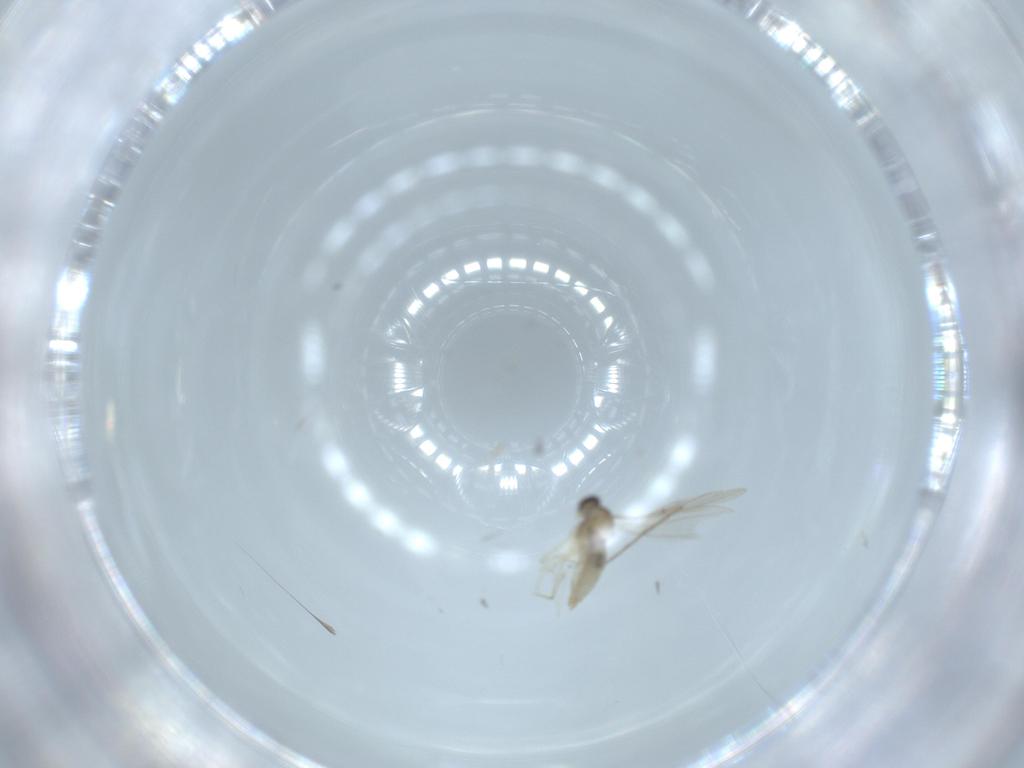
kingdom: Animalia
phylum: Arthropoda
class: Insecta
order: Diptera
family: Cecidomyiidae
